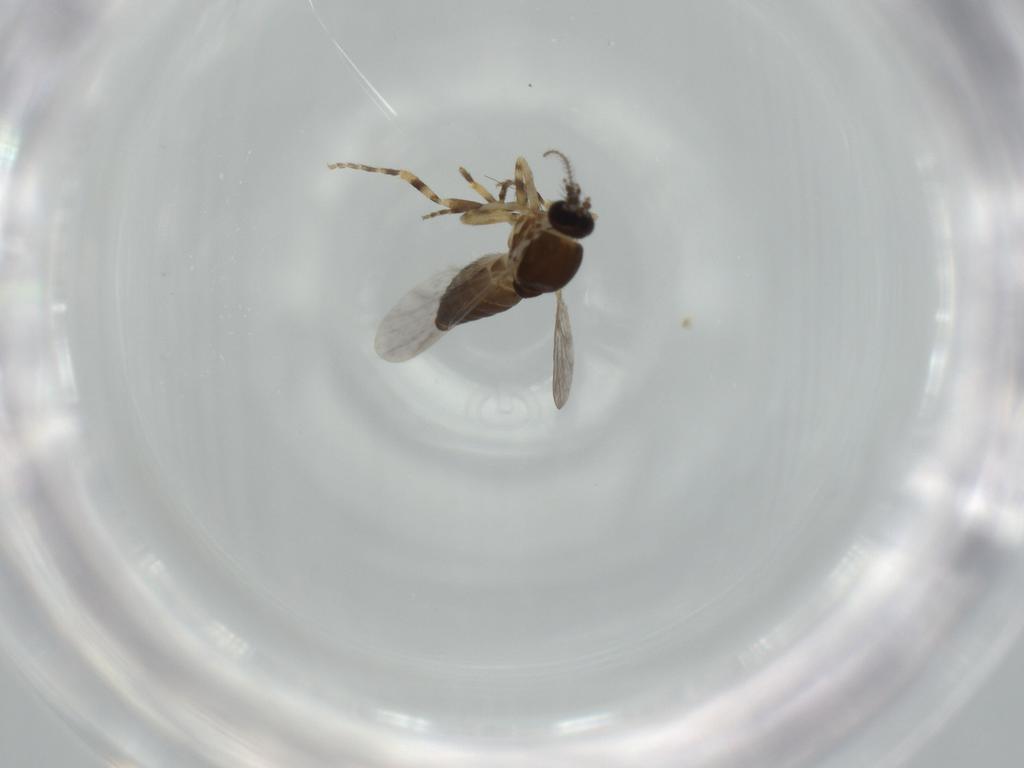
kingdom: Animalia
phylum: Arthropoda
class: Insecta
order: Diptera
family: Ceratopogonidae
